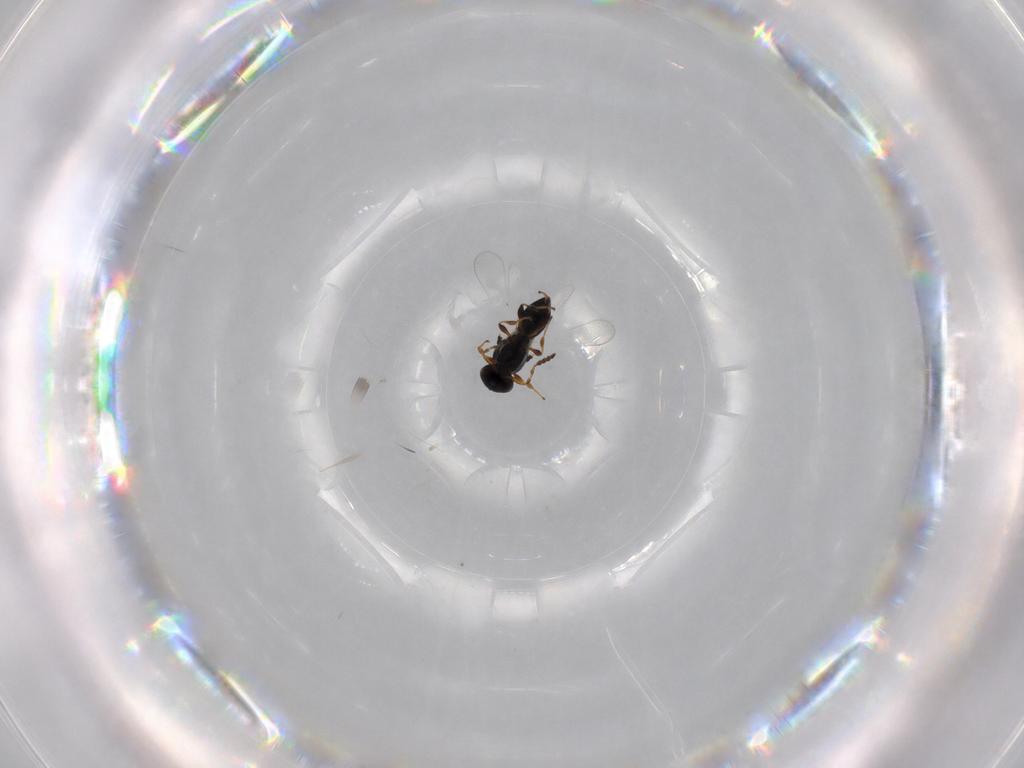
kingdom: Animalia
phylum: Arthropoda
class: Insecta
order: Hymenoptera
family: Platygastridae
